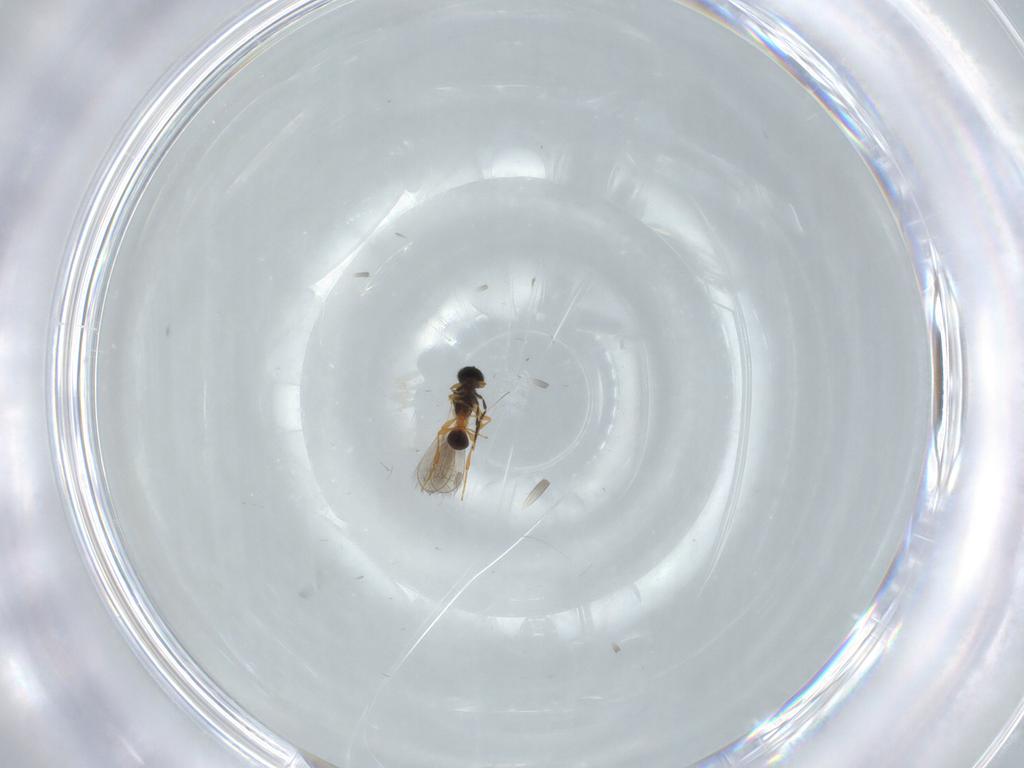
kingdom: Animalia
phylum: Arthropoda
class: Insecta
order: Hymenoptera
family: Platygastridae
